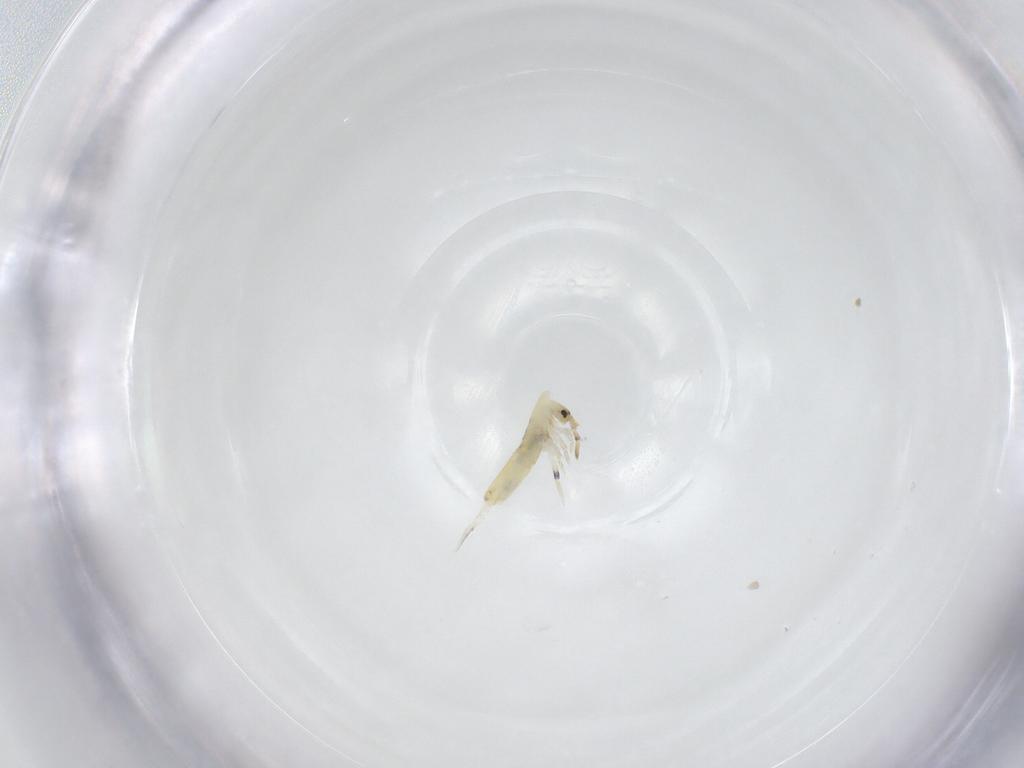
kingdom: Animalia
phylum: Arthropoda
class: Collembola
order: Entomobryomorpha
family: Entomobryidae
